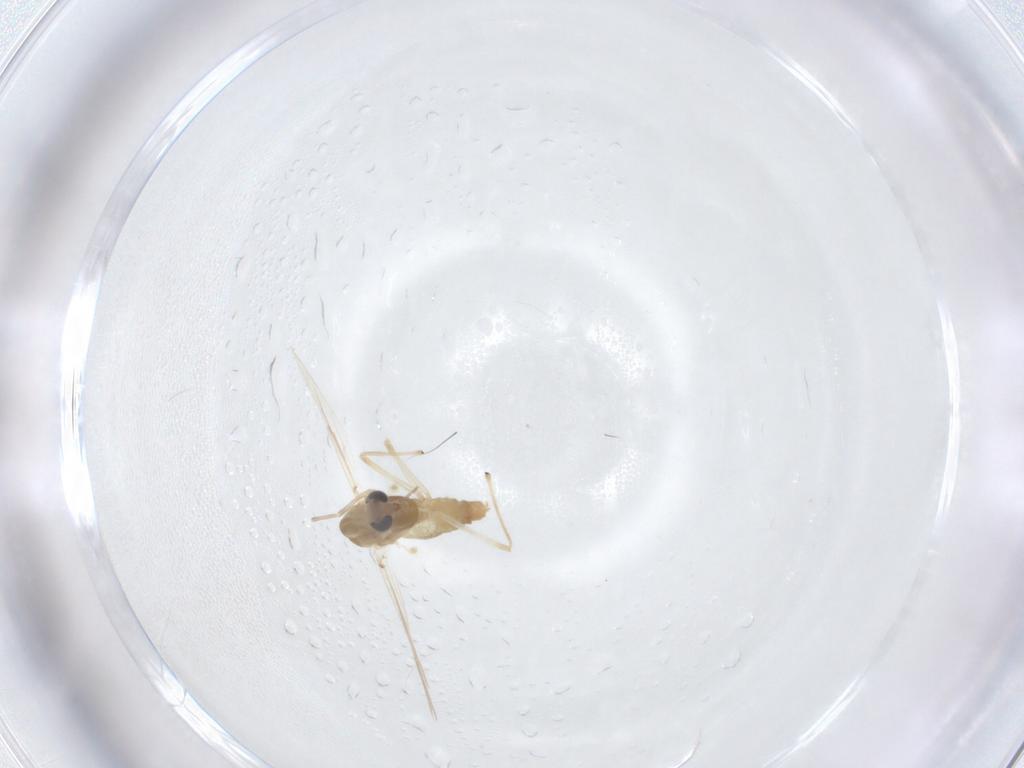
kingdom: Animalia
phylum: Arthropoda
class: Insecta
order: Diptera
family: Chironomidae
